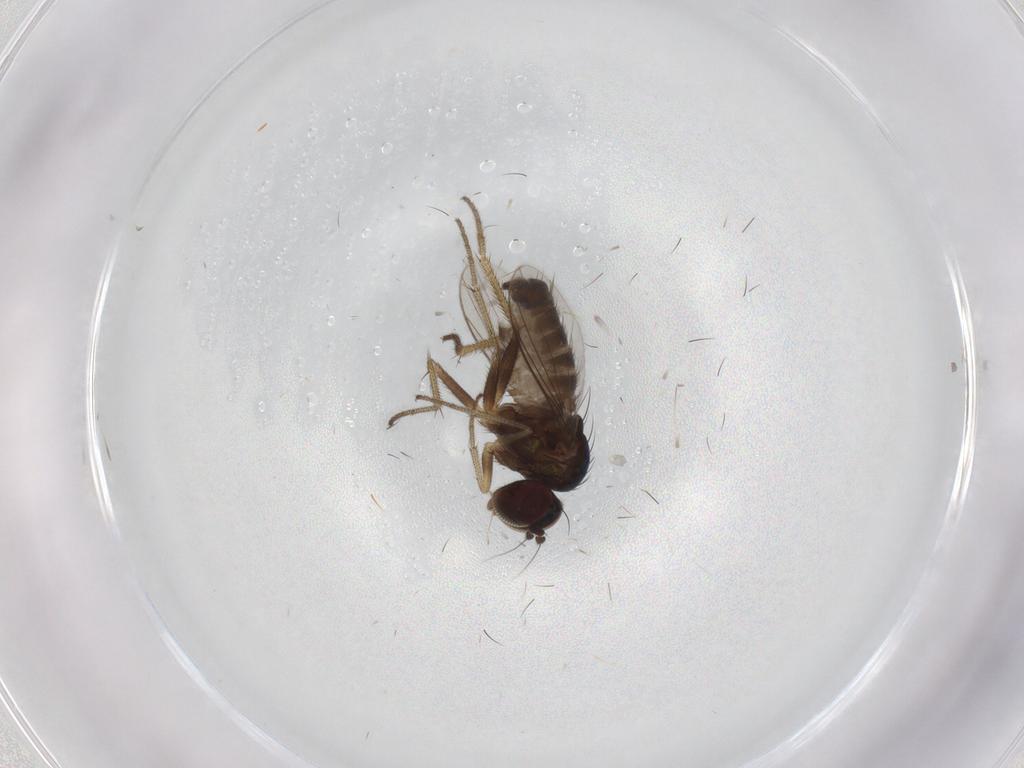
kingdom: Animalia
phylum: Arthropoda
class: Insecta
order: Diptera
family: Dolichopodidae
